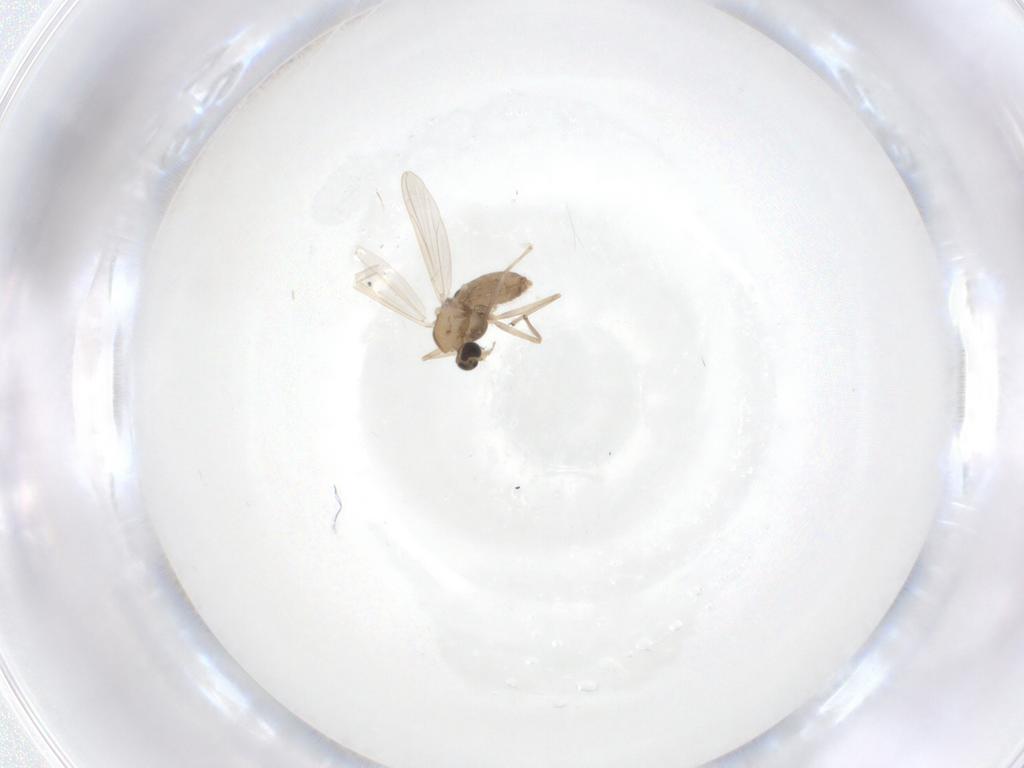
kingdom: Animalia
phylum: Arthropoda
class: Insecta
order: Diptera
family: Chironomidae
